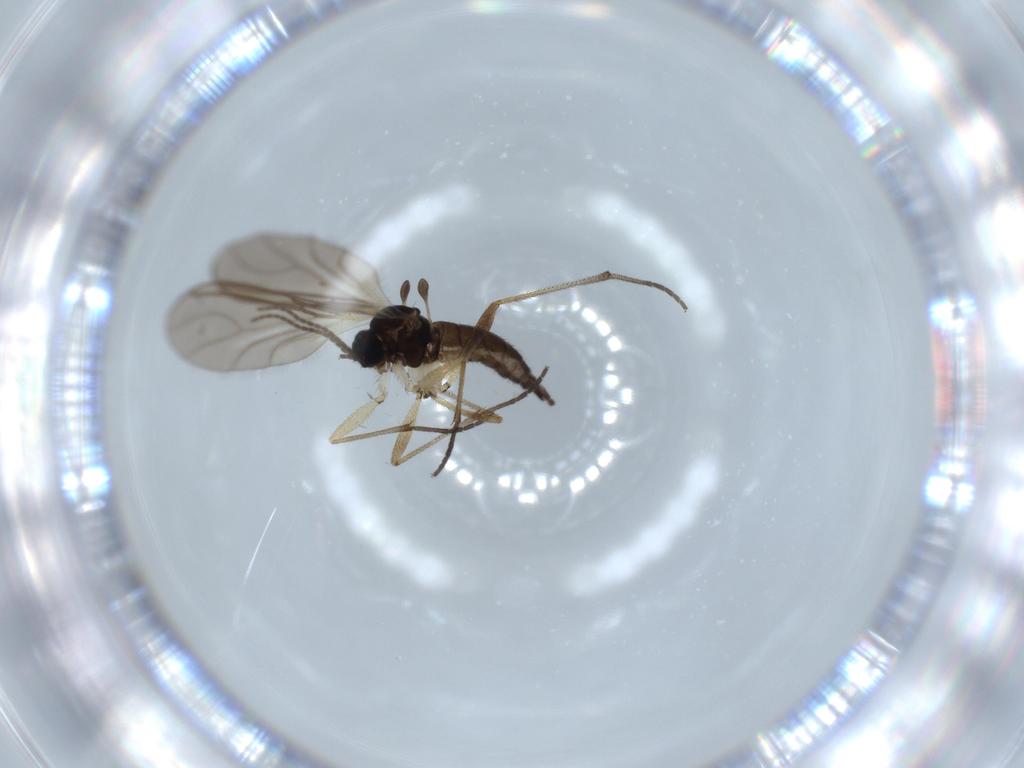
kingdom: Animalia
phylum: Arthropoda
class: Insecta
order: Diptera
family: Sciaridae
